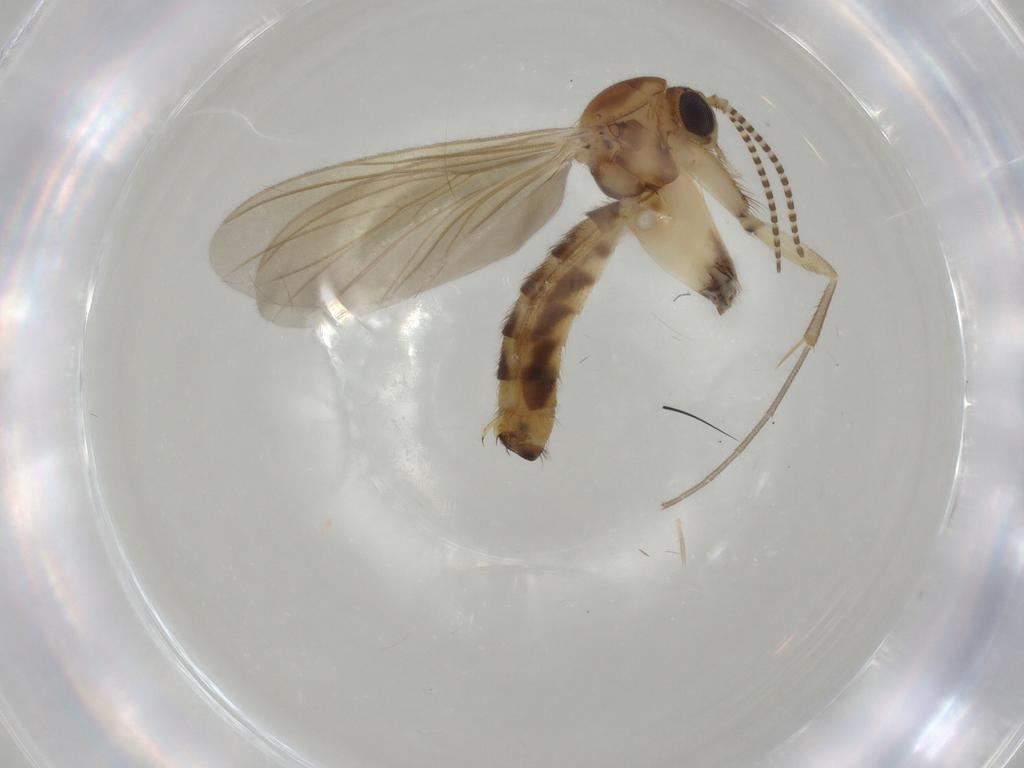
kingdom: Animalia
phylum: Arthropoda
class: Insecta
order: Diptera
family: Mycetophilidae
